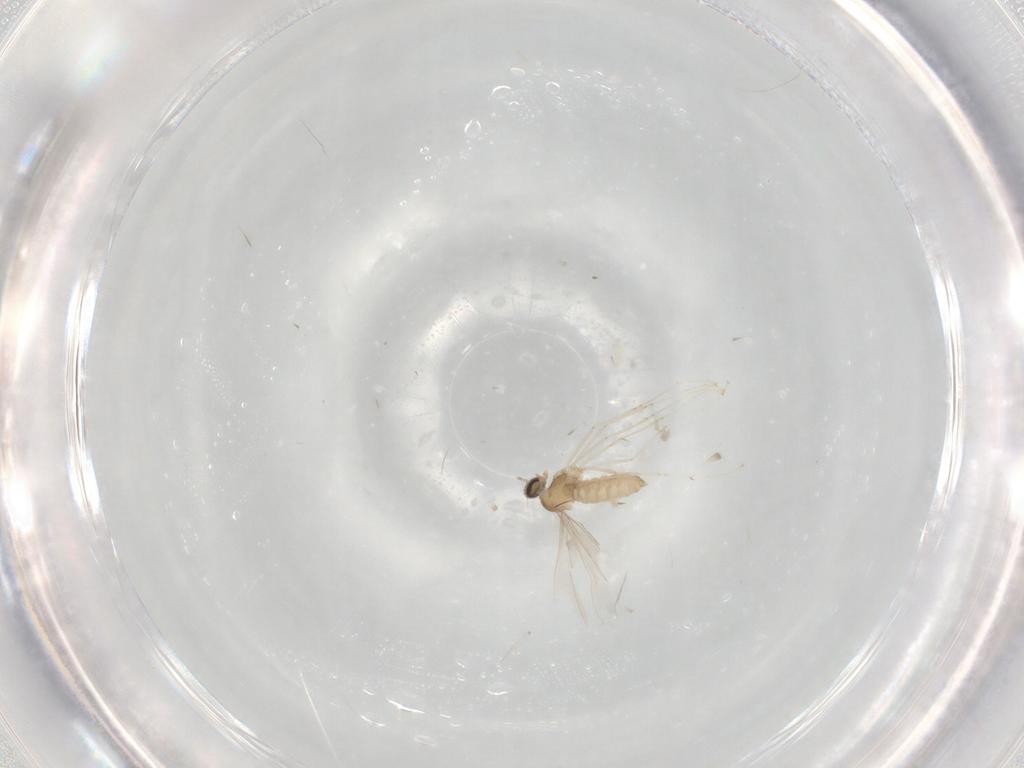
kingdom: Animalia
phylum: Arthropoda
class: Insecta
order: Diptera
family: Cecidomyiidae
